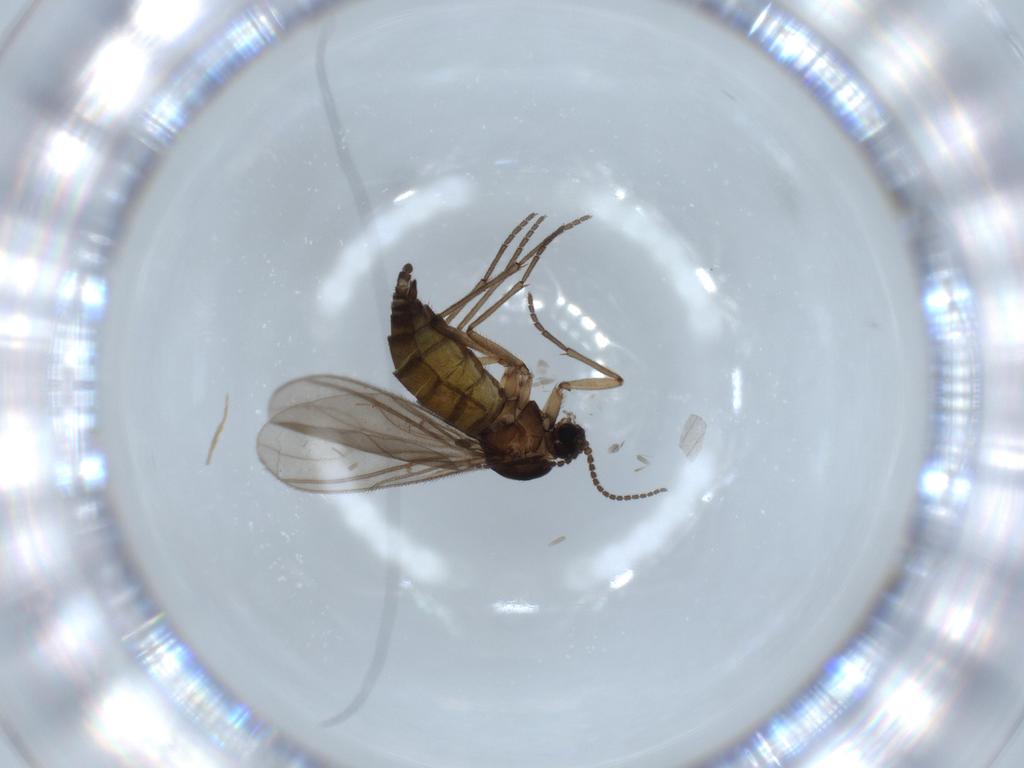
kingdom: Animalia
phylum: Arthropoda
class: Insecta
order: Diptera
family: Sciaridae
